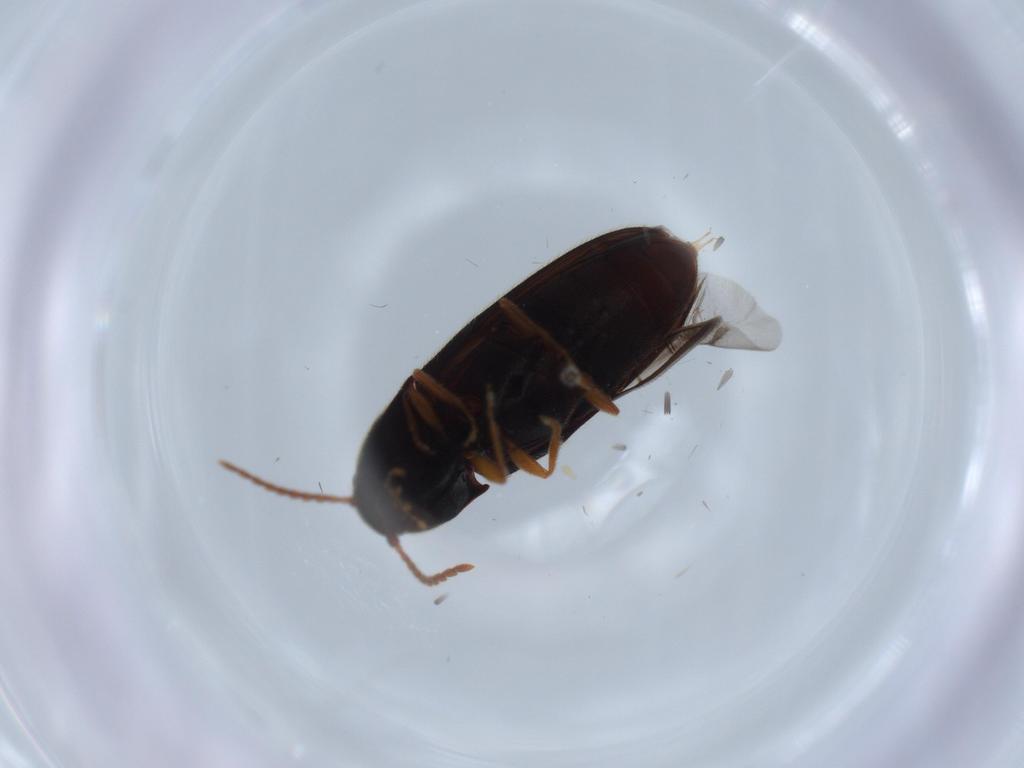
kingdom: Animalia
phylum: Arthropoda
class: Insecta
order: Coleoptera
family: Elateridae
